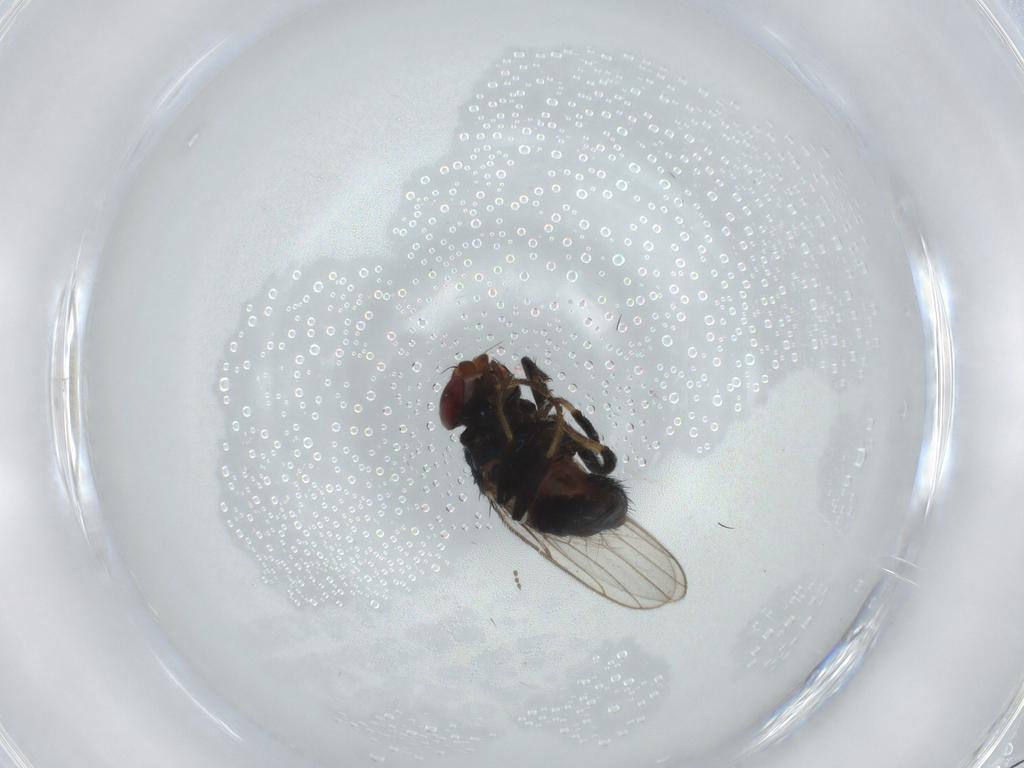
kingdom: Animalia
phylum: Arthropoda
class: Insecta
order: Diptera
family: Chloropidae
